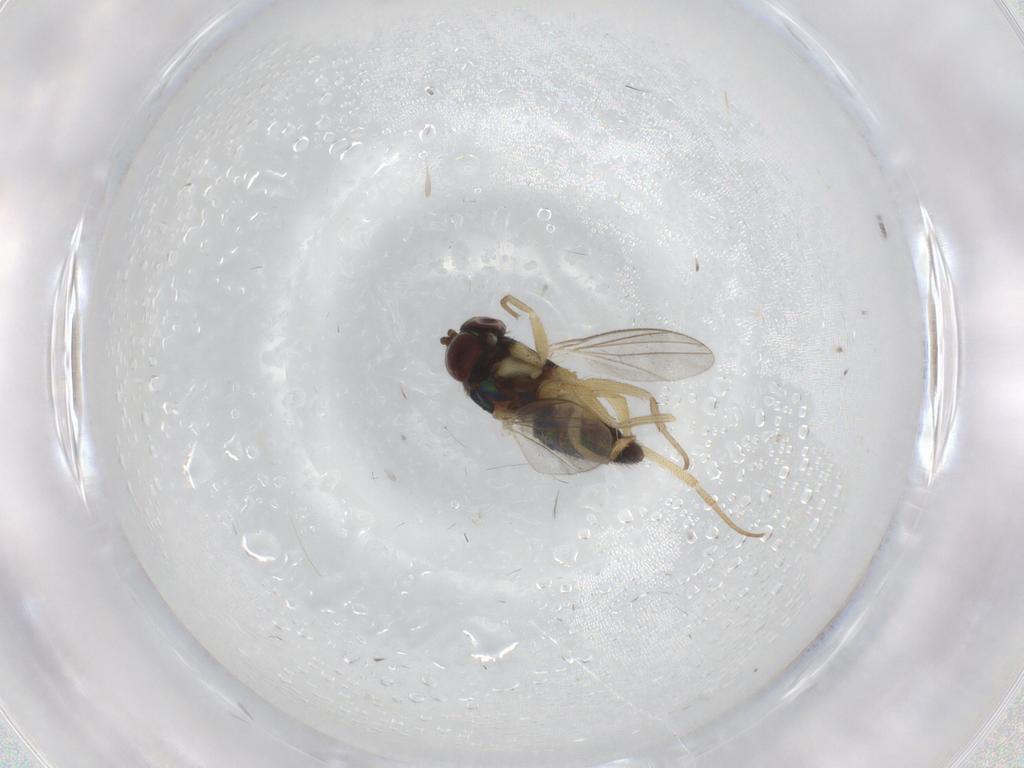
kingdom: Animalia
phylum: Arthropoda
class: Insecta
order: Diptera
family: Dolichopodidae
